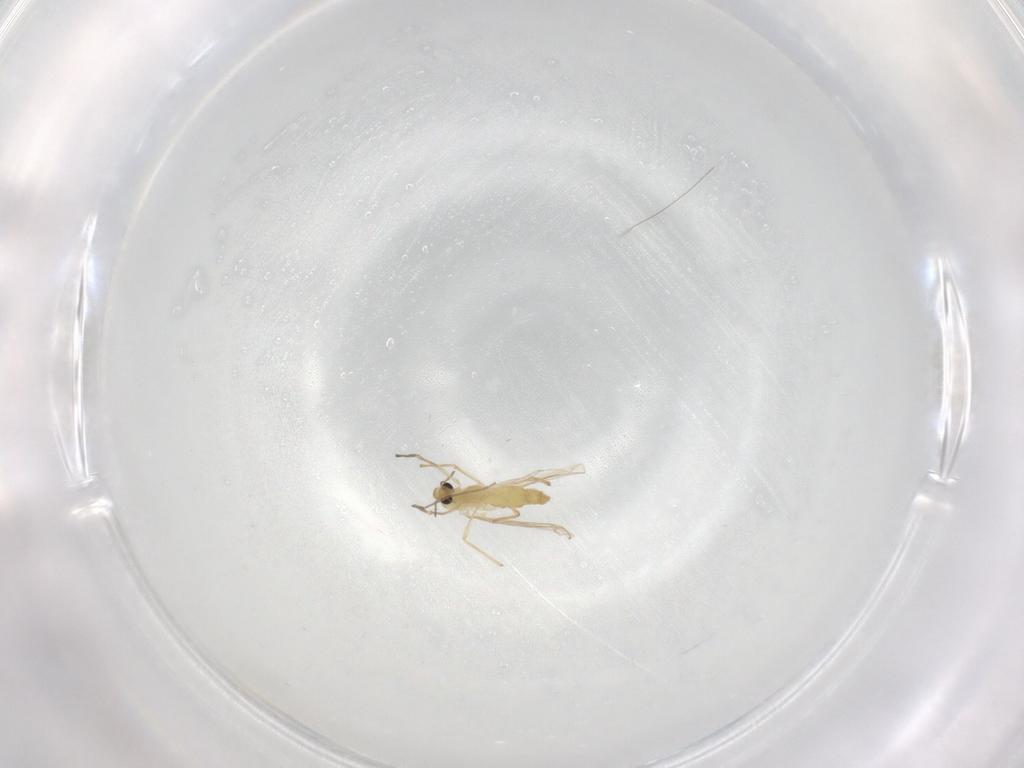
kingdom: Animalia
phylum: Arthropoda
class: Insecta
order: Diptera
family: Chironomidae
